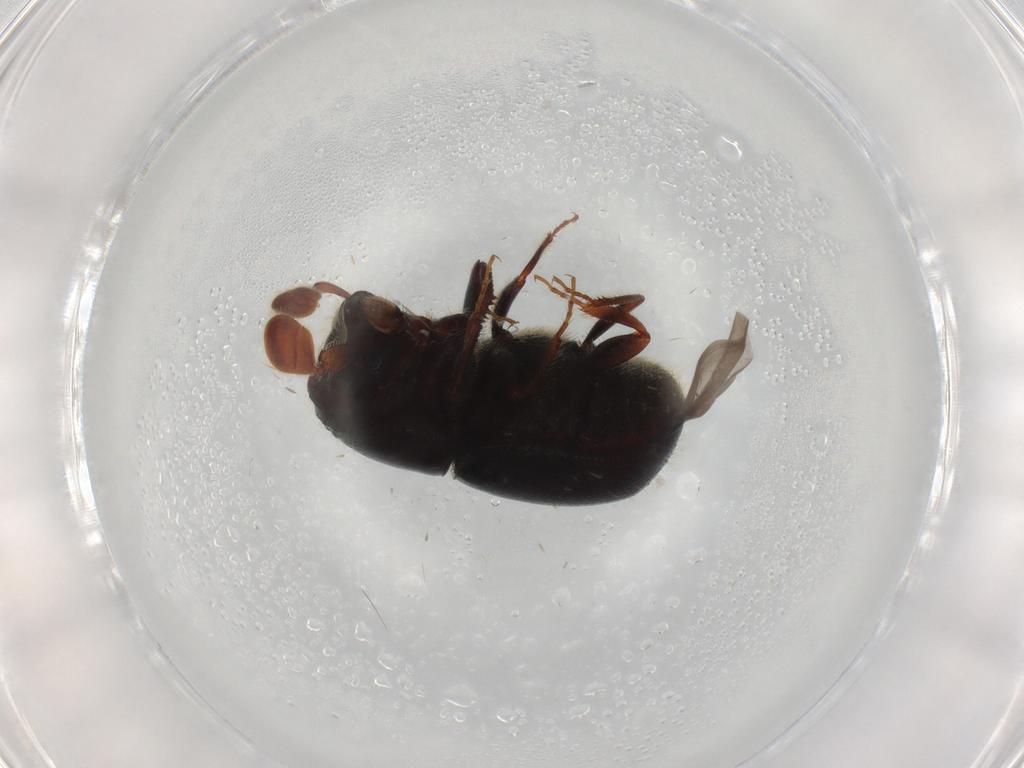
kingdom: Animalia
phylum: Arthropoda
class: Insecta
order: Coleoptera
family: Curculionidae
